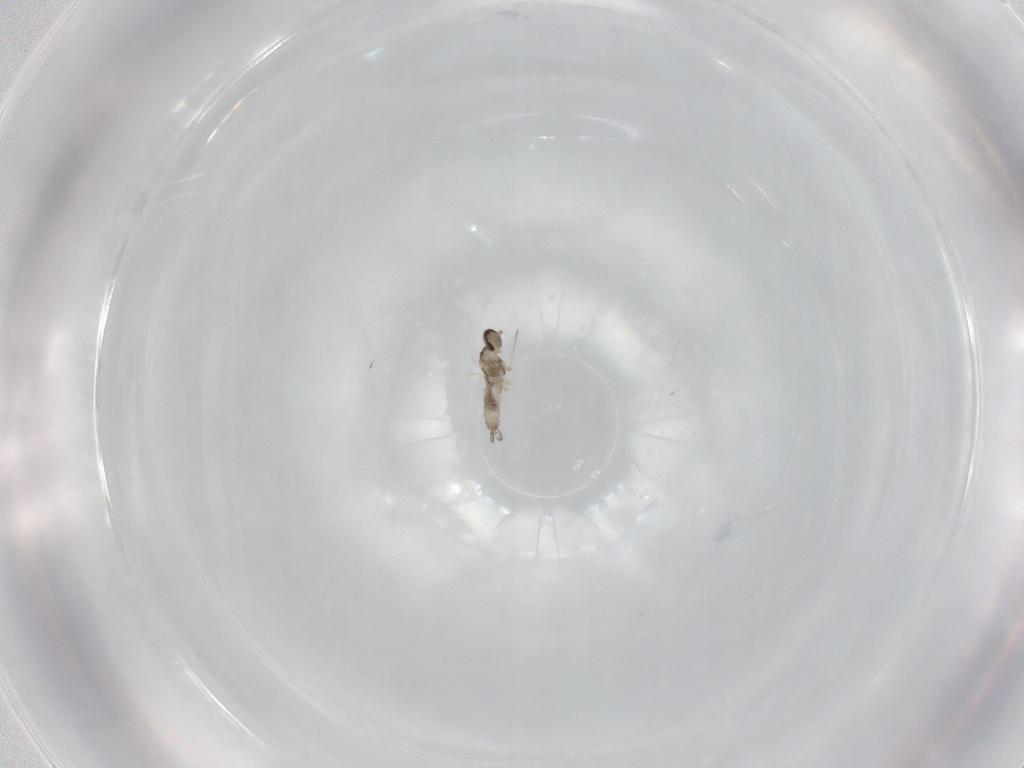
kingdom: Animalia
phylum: Arthropoda
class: Insecta
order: Diptera
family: Cecidomyiidae
